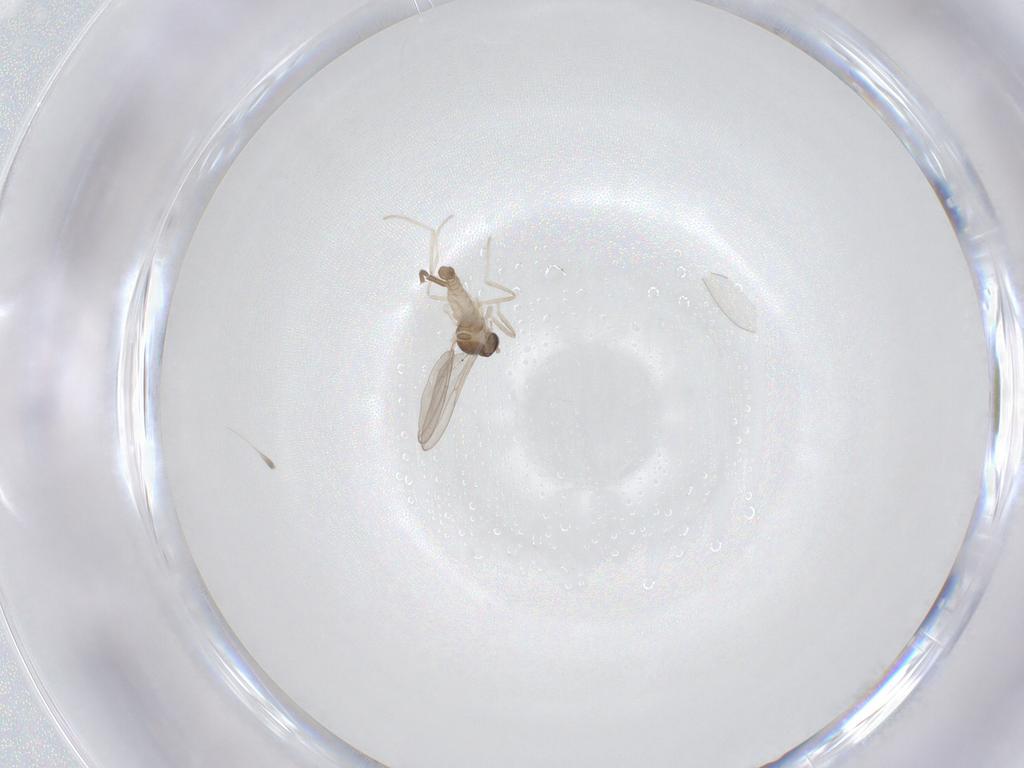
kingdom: Animalia
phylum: Arthropoda
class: Insecta
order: Diptera
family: Cecidomyiidae
